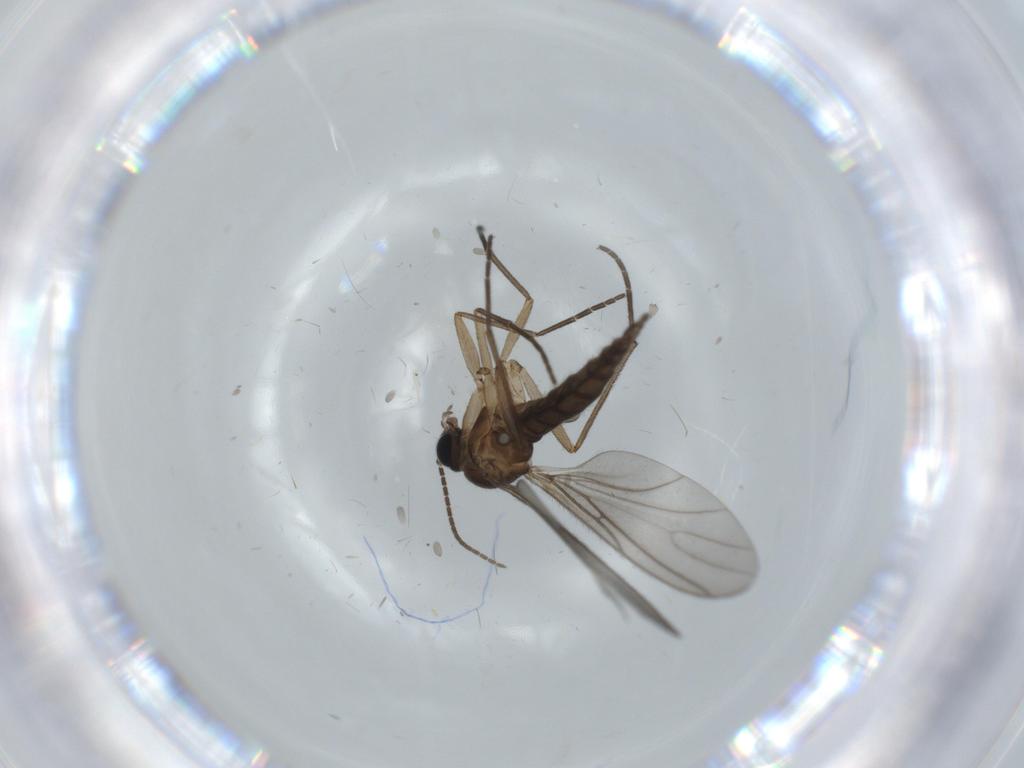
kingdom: Animalia
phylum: Arthropoda
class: Insecta
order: Diptera
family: Sciaridae
